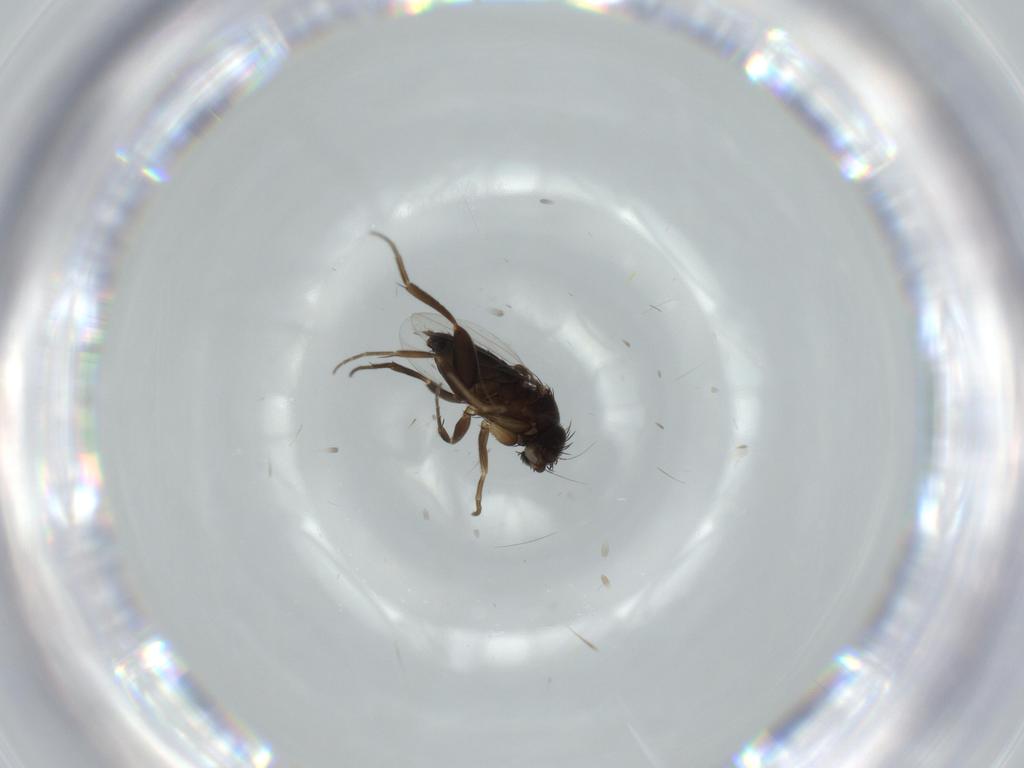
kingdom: Animalia
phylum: Arthropoda
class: Insecta
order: Diptera
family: Phoridae
